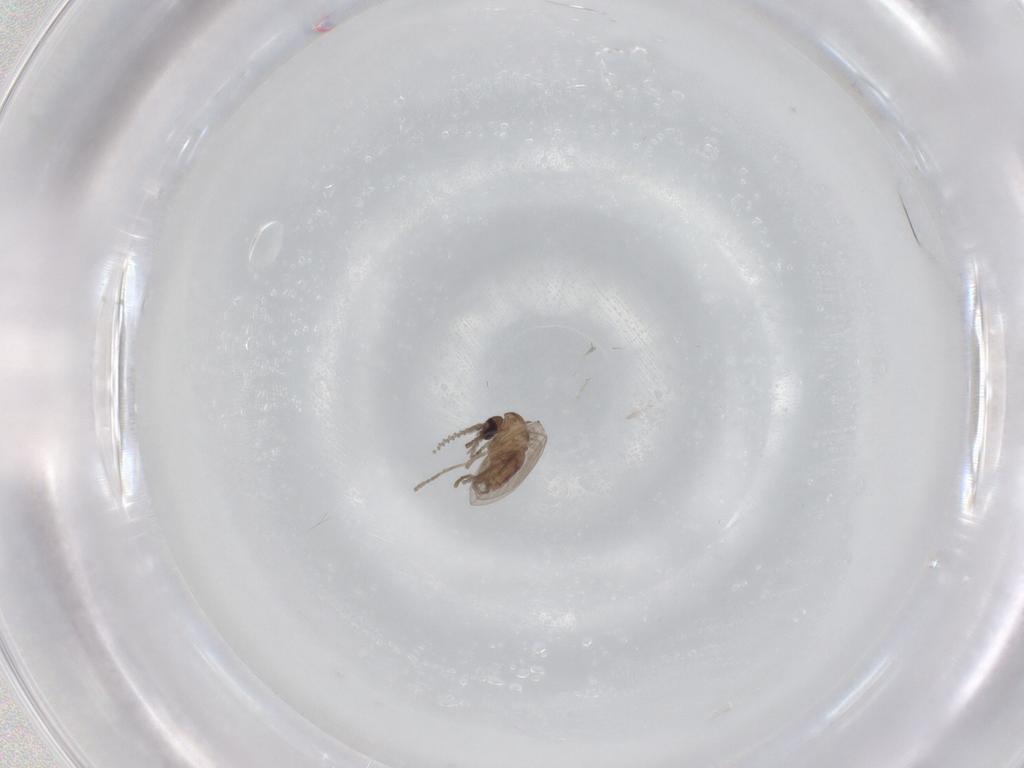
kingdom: Animalia
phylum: Arthropoda
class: Insecta
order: Diptera
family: Psychodidae
